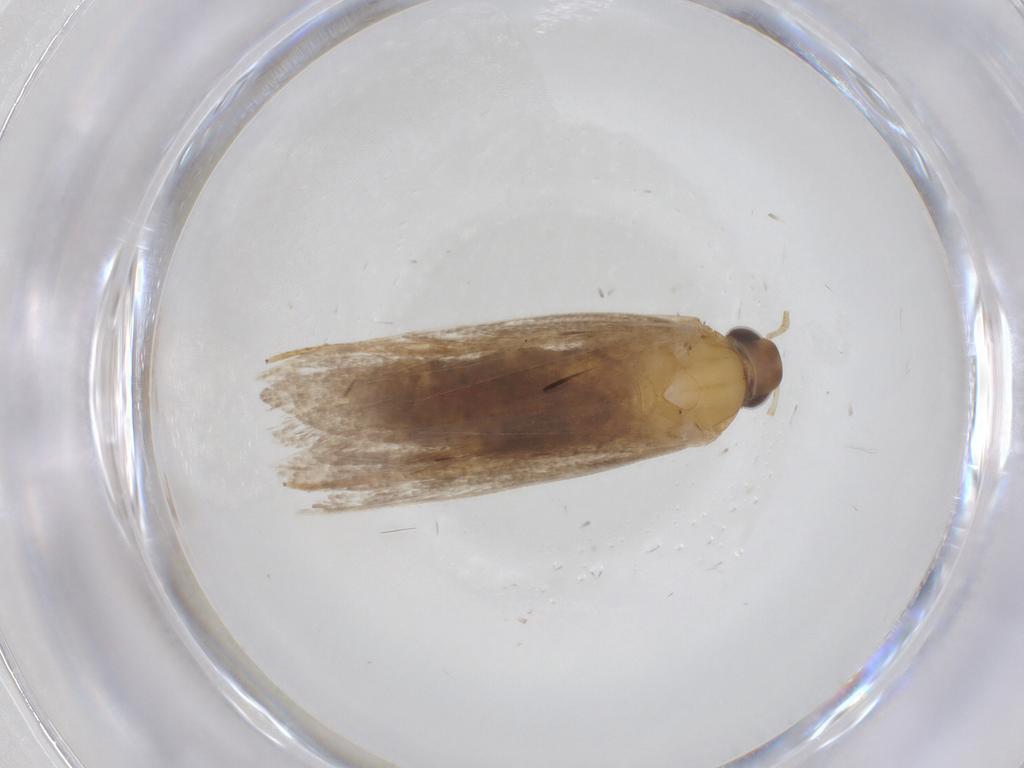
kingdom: Animalia
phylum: Arthropoda
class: Insecta
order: Lepidoptera
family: Oecophoridae
